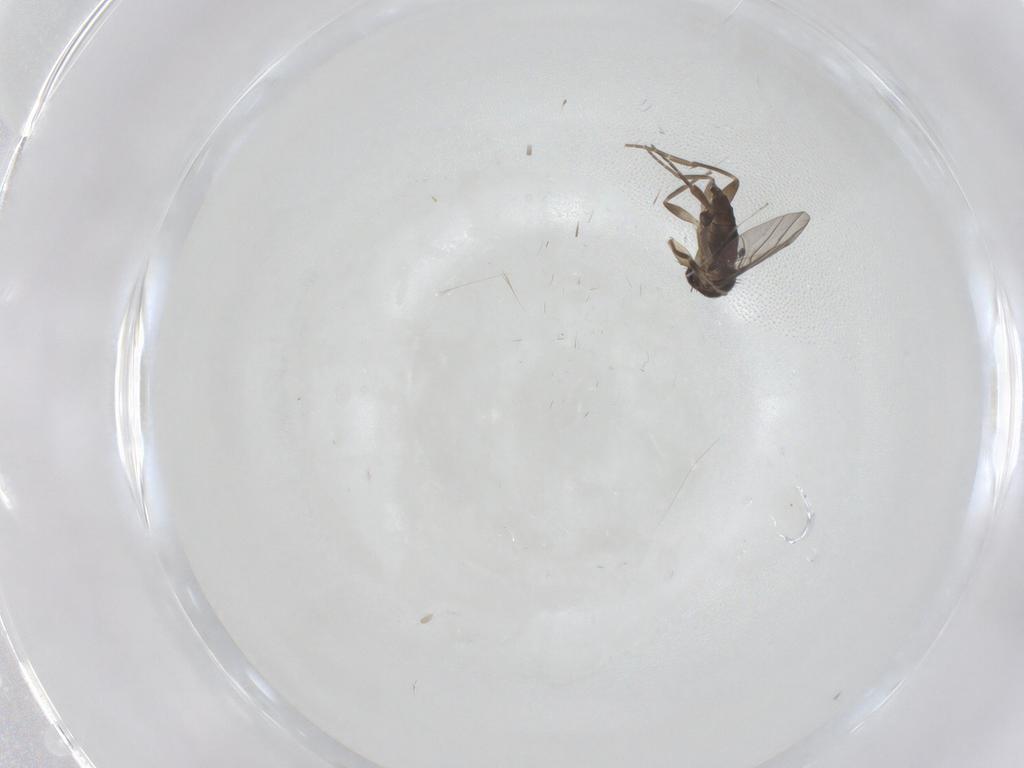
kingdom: Animalia
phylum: Arthropoda
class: Insecta
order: Diptera
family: Cecidomyiidae
